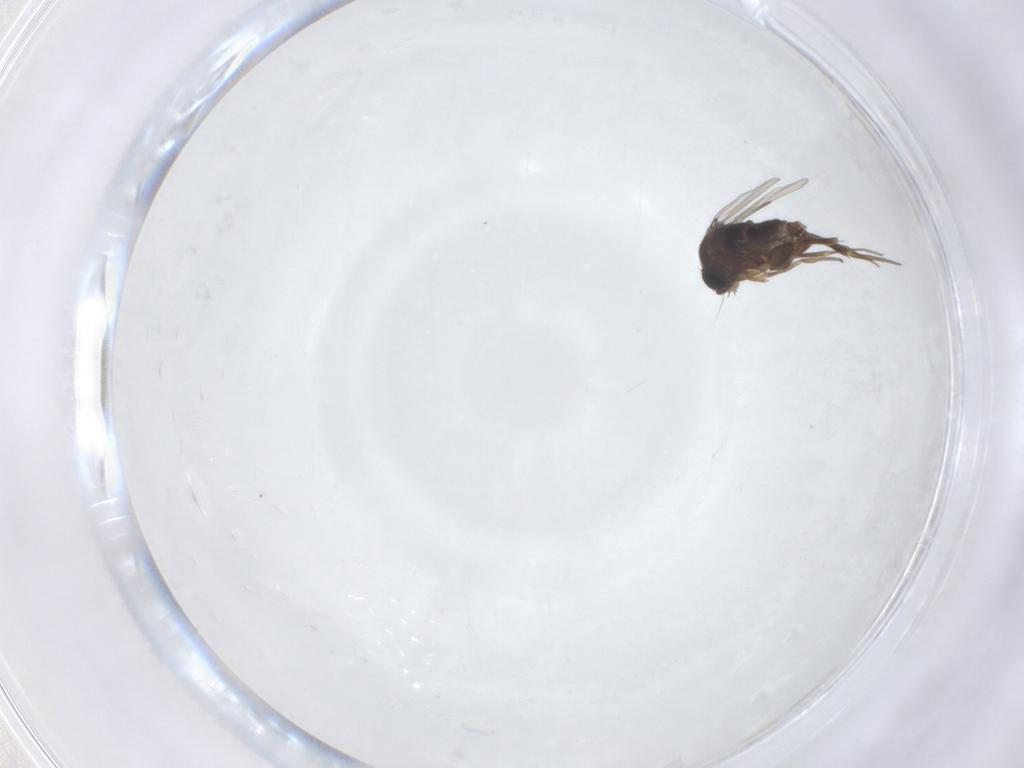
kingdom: Animalia
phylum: Arthropoda
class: Insecta
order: Diptera
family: Phoridae
